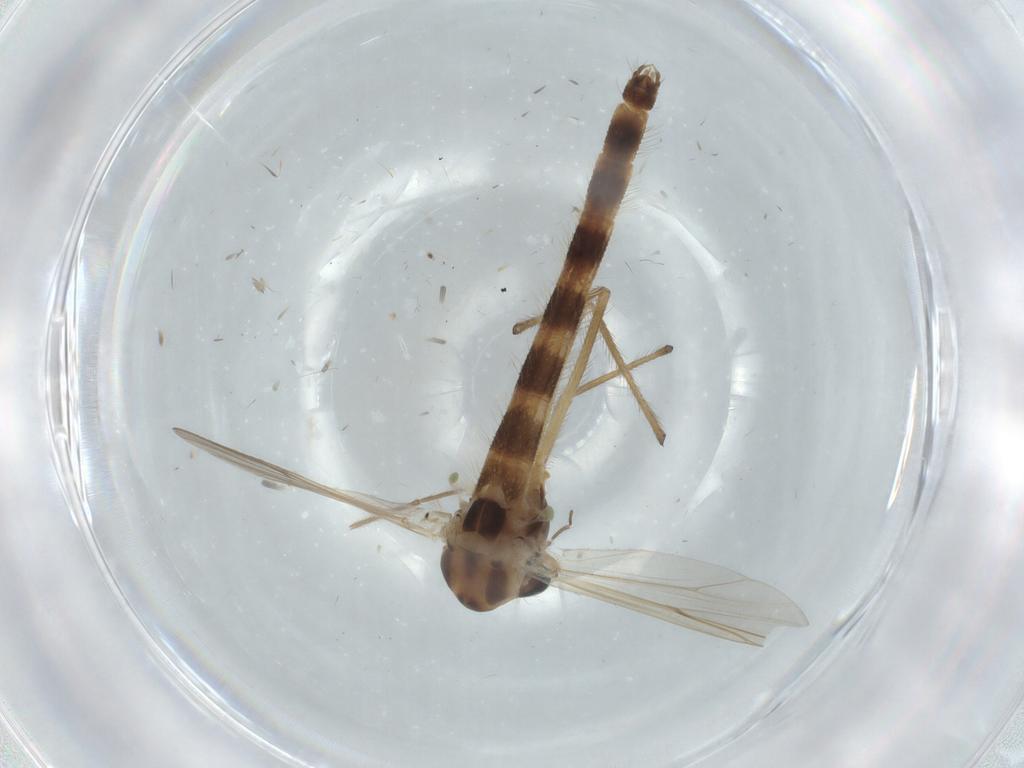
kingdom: Animalia
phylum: Arthropoda
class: Insecta
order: Diptera
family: Chironomidae
